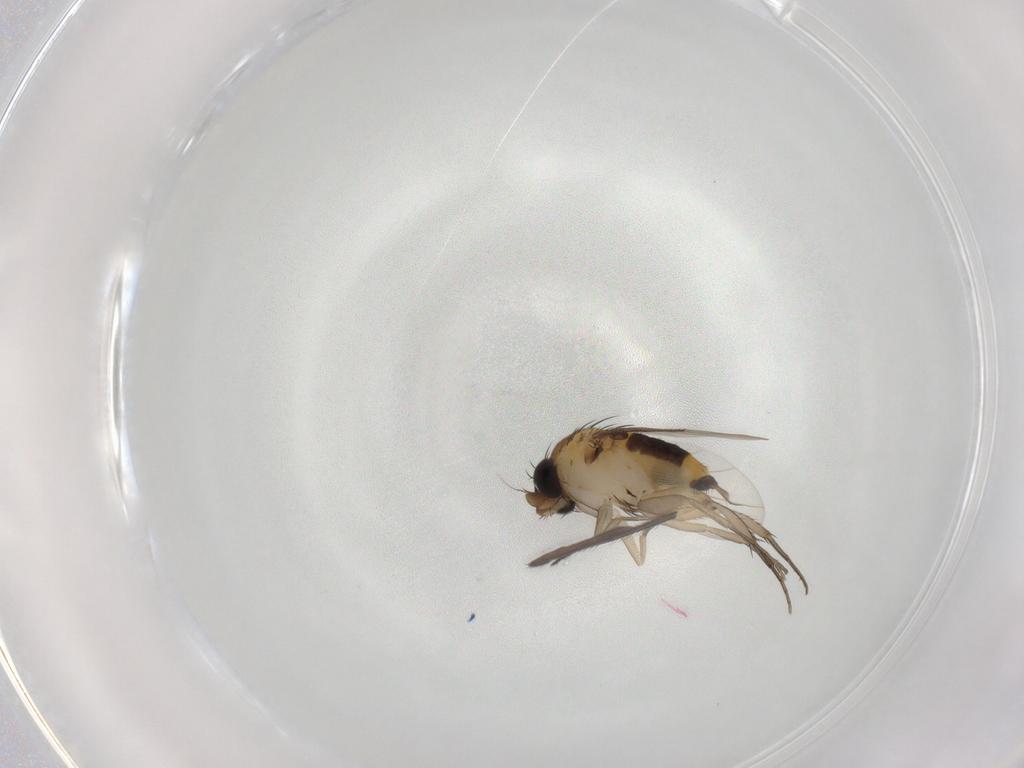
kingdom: Animalia
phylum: Arthropoda
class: Insecta
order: Diptera
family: Phoridae
